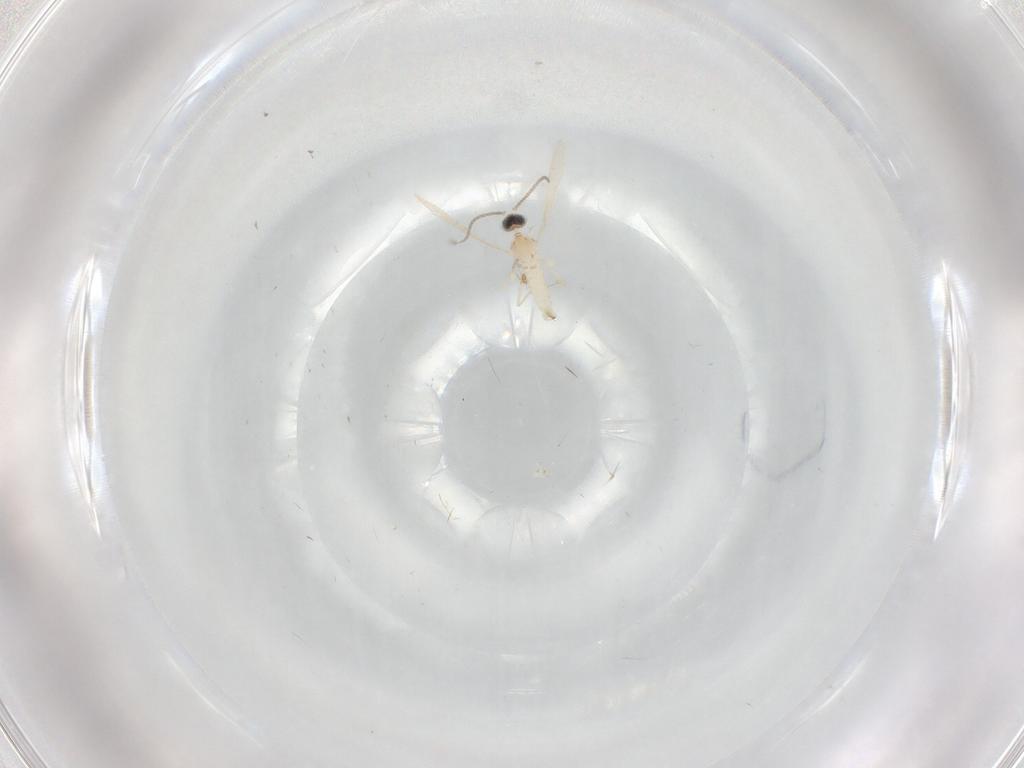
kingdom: Animalia
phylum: Arthropoda
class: Insecta
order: Diptera
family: Cecidomyiidae
